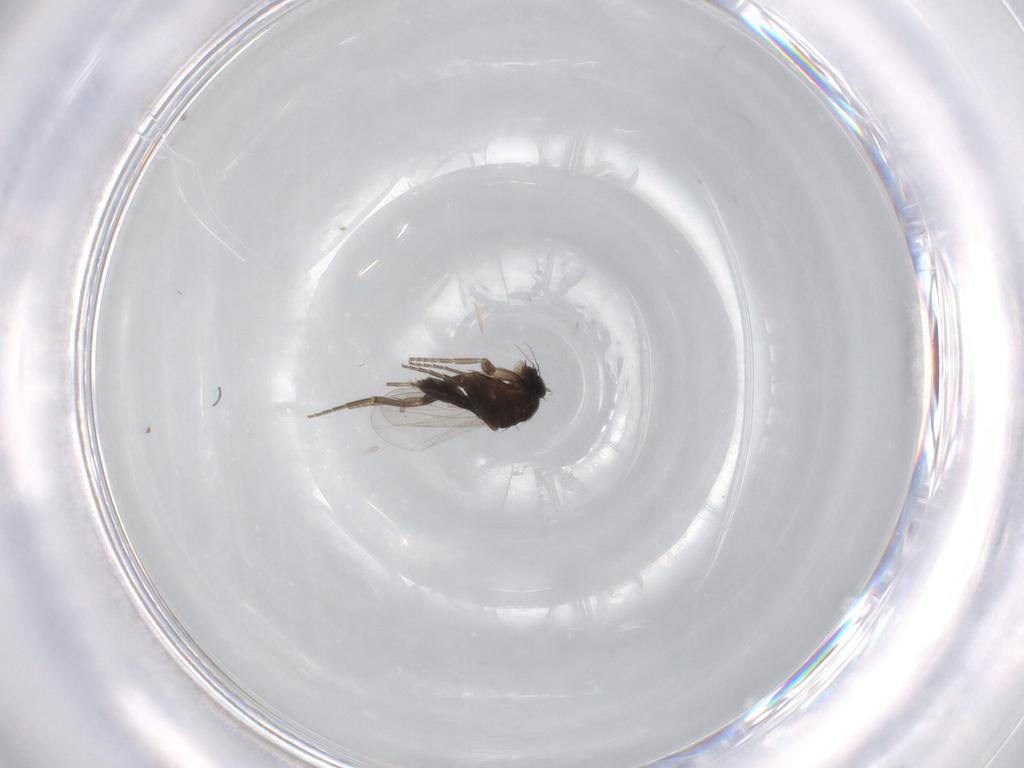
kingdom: Animalia
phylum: Arthropoda
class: Insecta
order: Diptera
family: Phoridae
